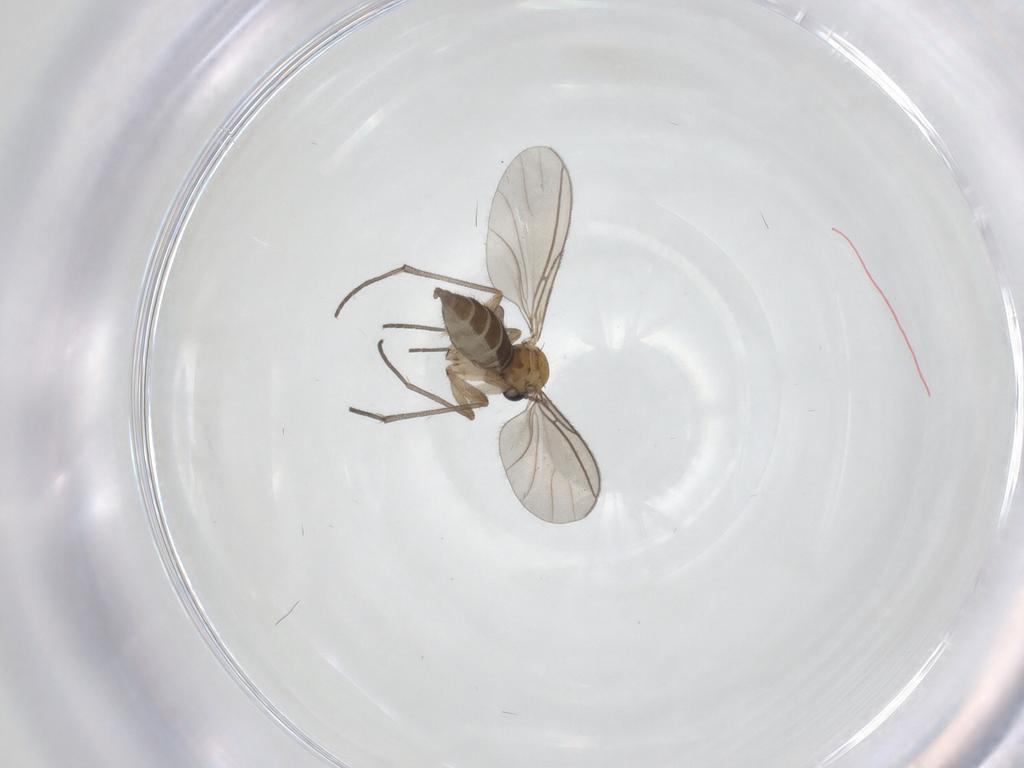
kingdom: Animalia
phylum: Arthropoda
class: Insecta
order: Diptera
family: Sciaridae
